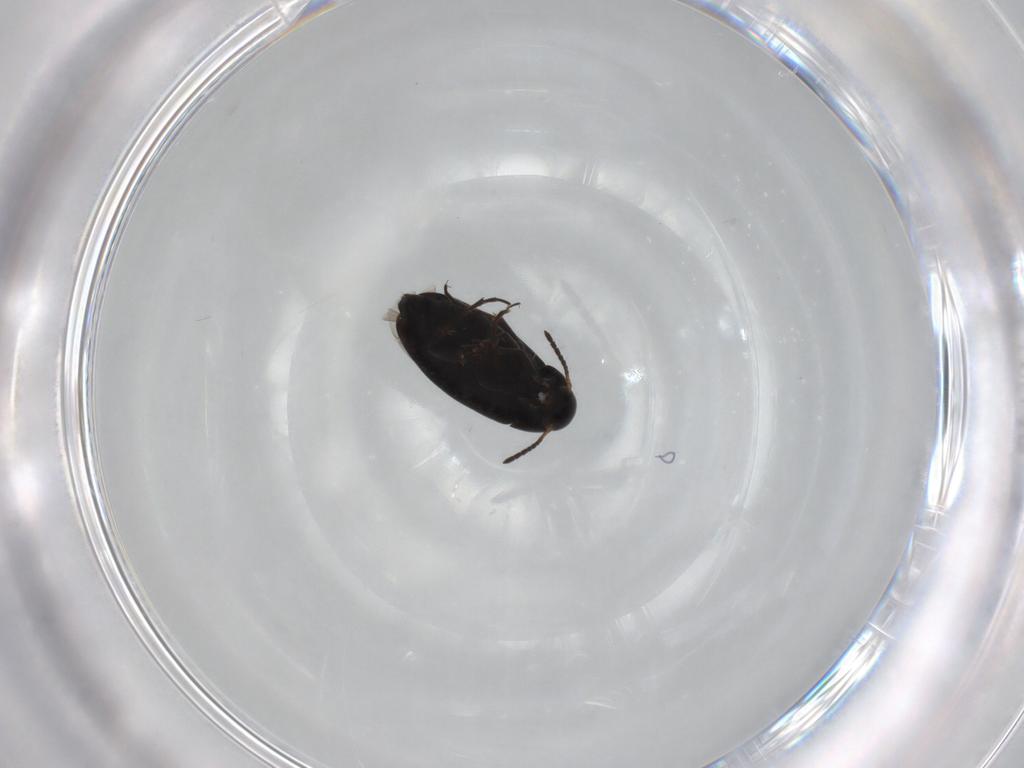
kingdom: Animalia
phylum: Arthropoda
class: Insecta
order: Coleoptera
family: Scraptiidae
